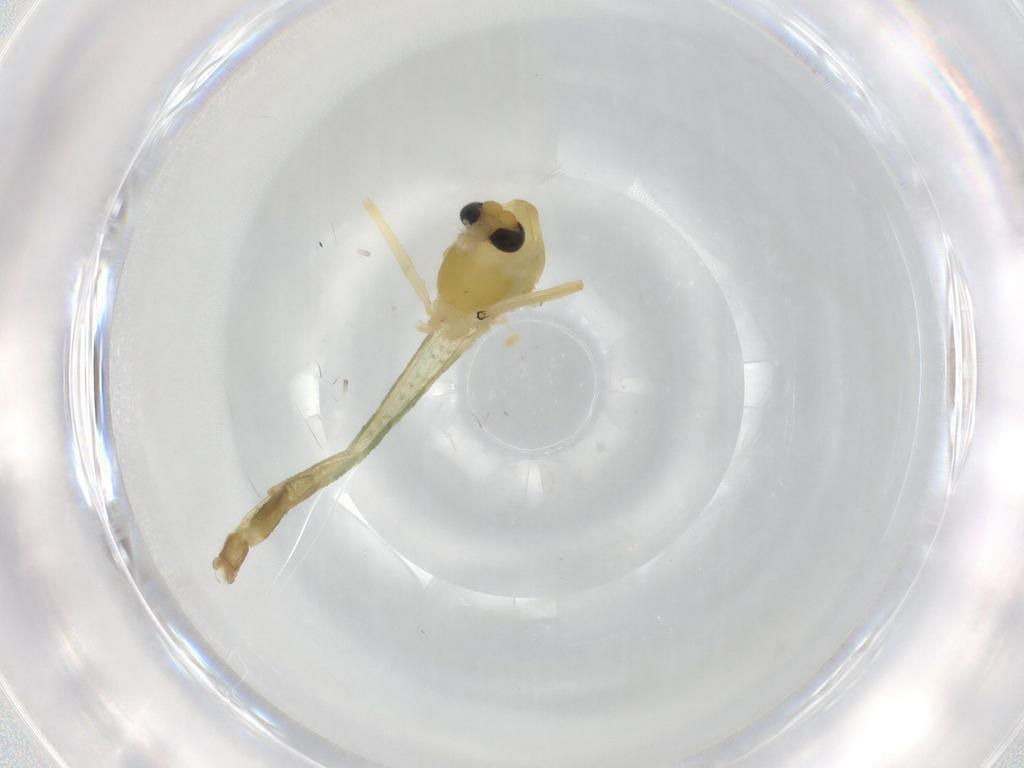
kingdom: Animalia
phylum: Arthropoda
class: Insecta
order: Diptera
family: Chironomidae
